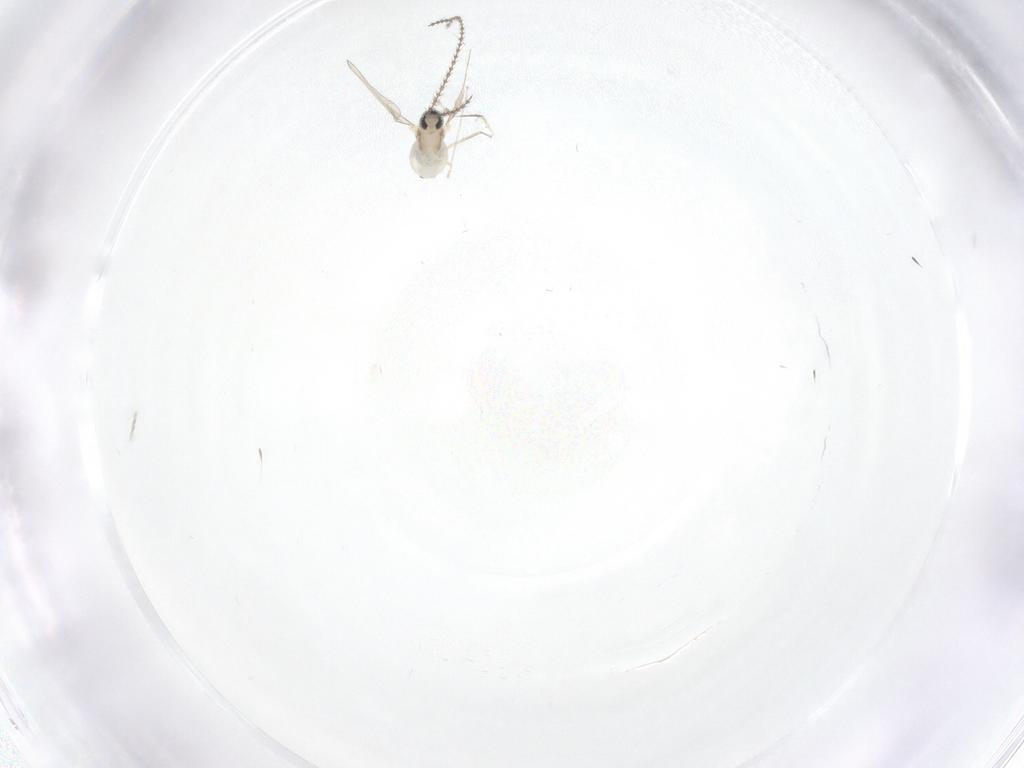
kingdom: Animalia
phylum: Arthropoda
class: Insecta
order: Diptera
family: Cecidomyiidae
